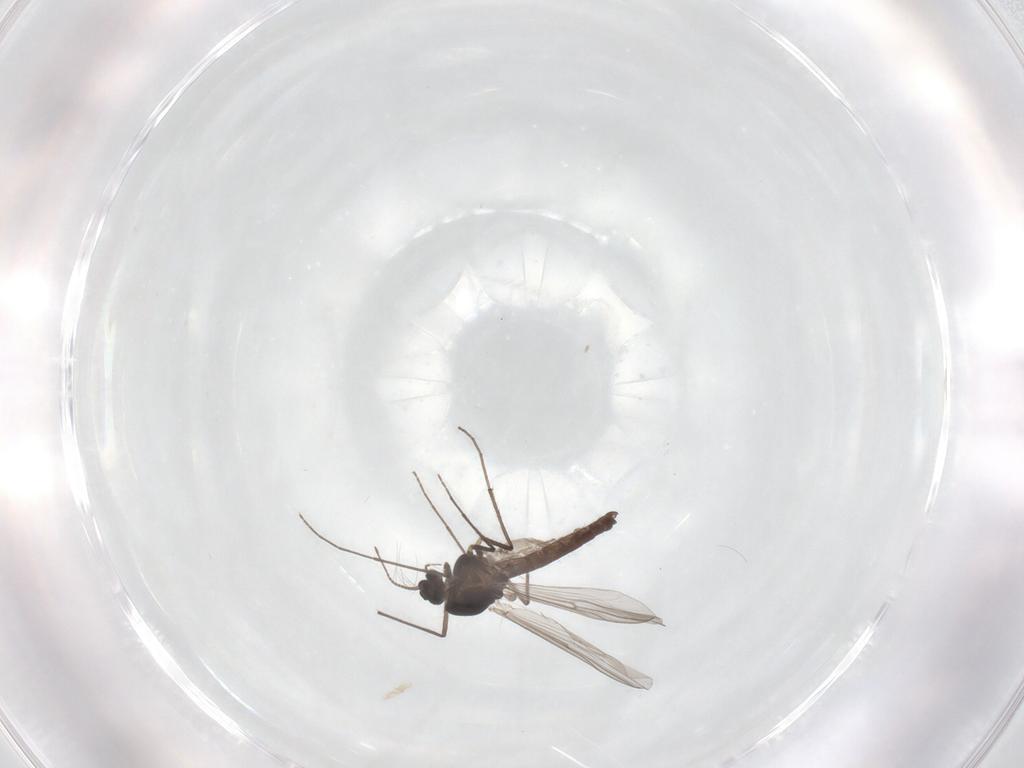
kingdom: Animalia
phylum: Arthropoda
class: Insecta
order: Diptera
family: Chironomidae
